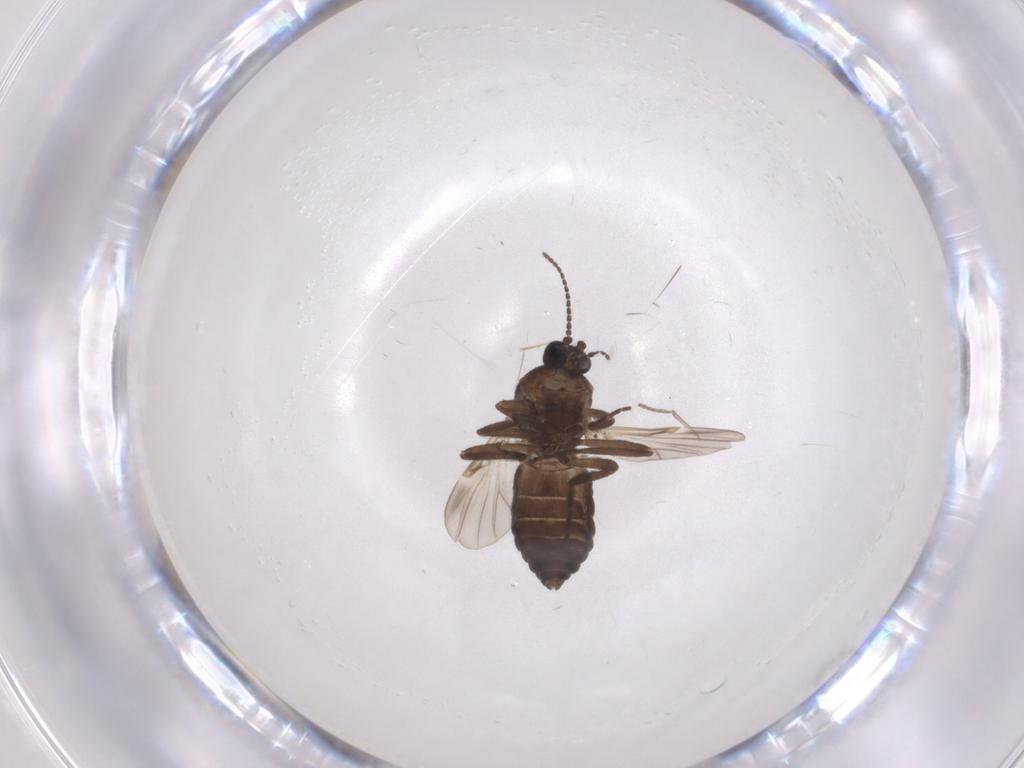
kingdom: Animalia
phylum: Arthropoda
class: Insecta
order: Diptera
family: Ceratopogonidae
